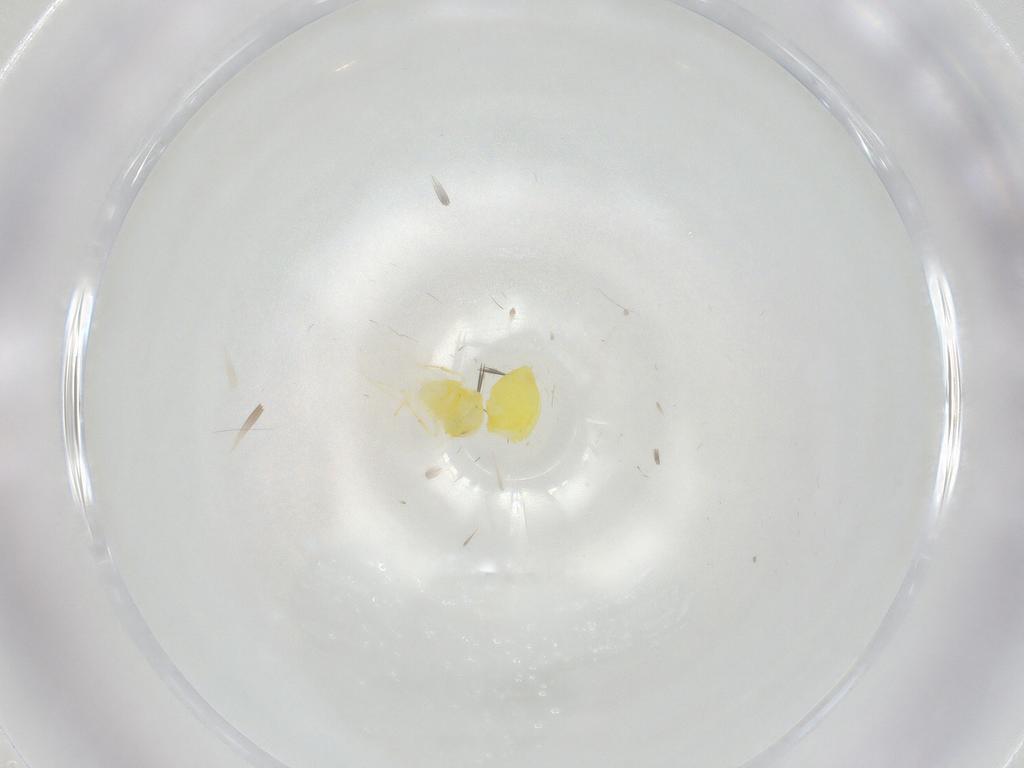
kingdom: Animalia
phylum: Arthropoda
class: Insecta
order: Hemiptera
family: Aleyrodidae
